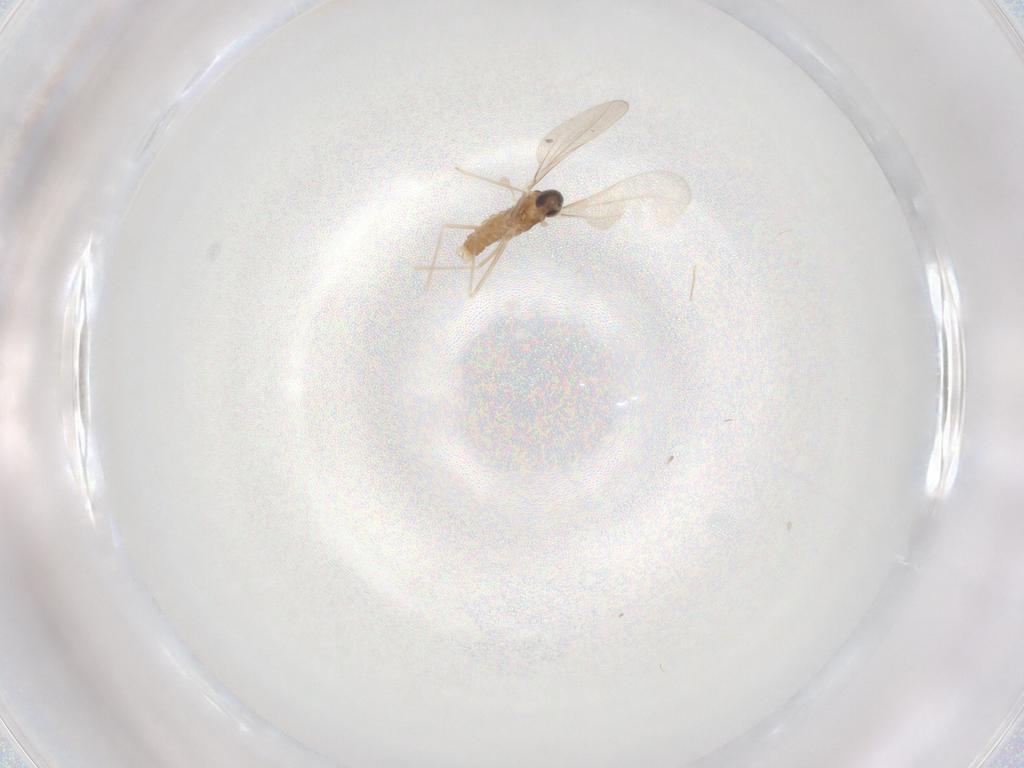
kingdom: Animalia
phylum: Arthropoda
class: Insecta
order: Diptera
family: Cecidomyiidae
